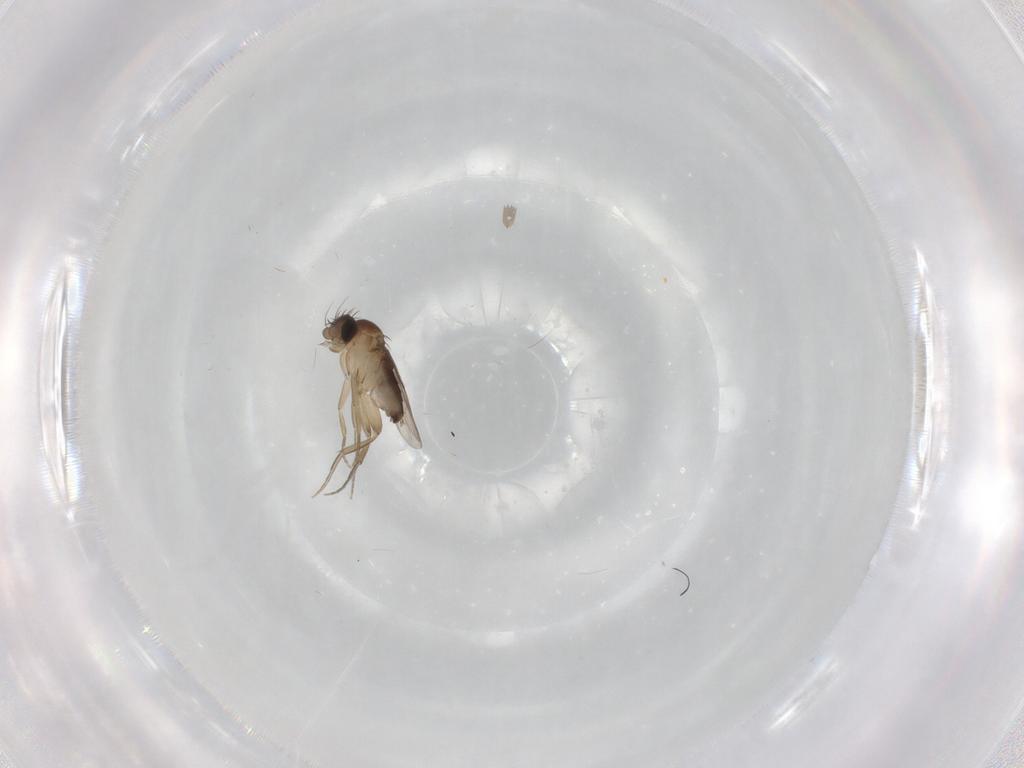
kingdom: Animalia
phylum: Arthropoda
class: Insecta
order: Diptera
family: Phoridae
